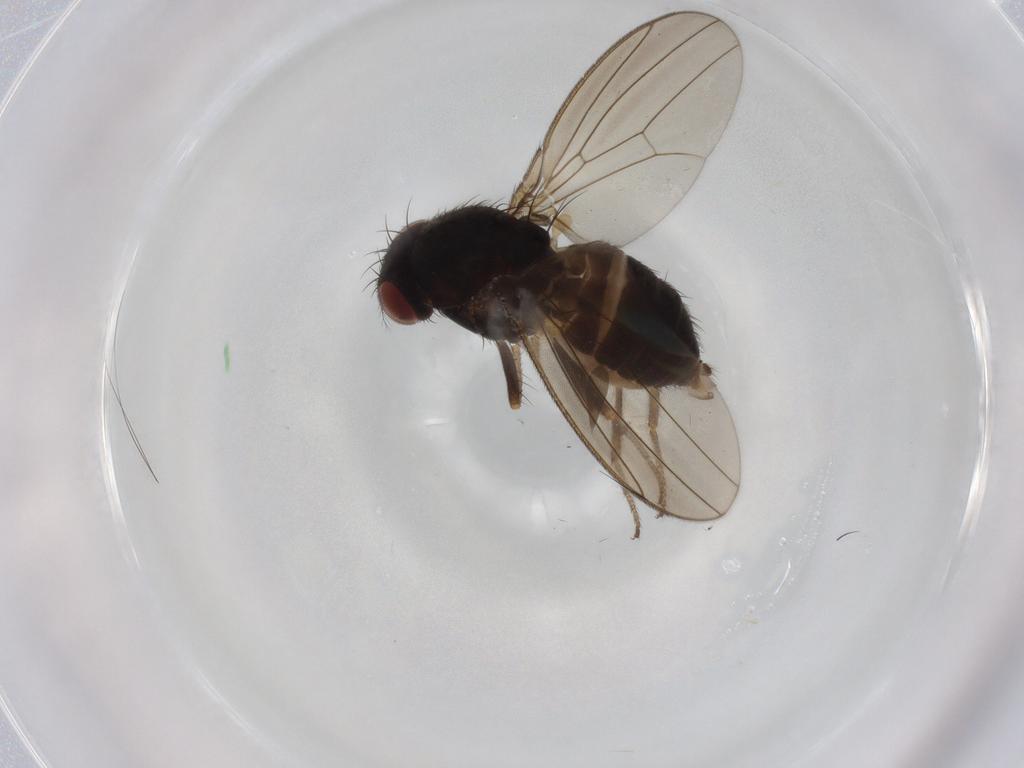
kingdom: Animalia
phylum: Arthropoda
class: Insecta
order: Diptera
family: Drosophilidae
